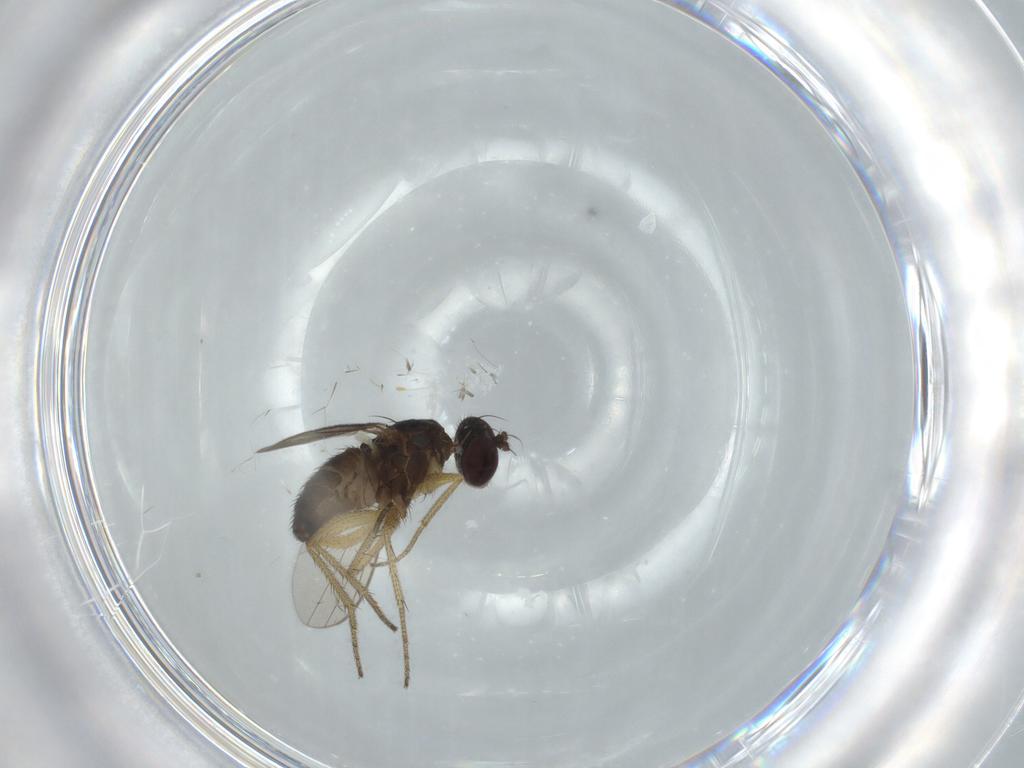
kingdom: Animalia
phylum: Arthropoda
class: Insecta
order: Diptera
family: Dolichopodidae
